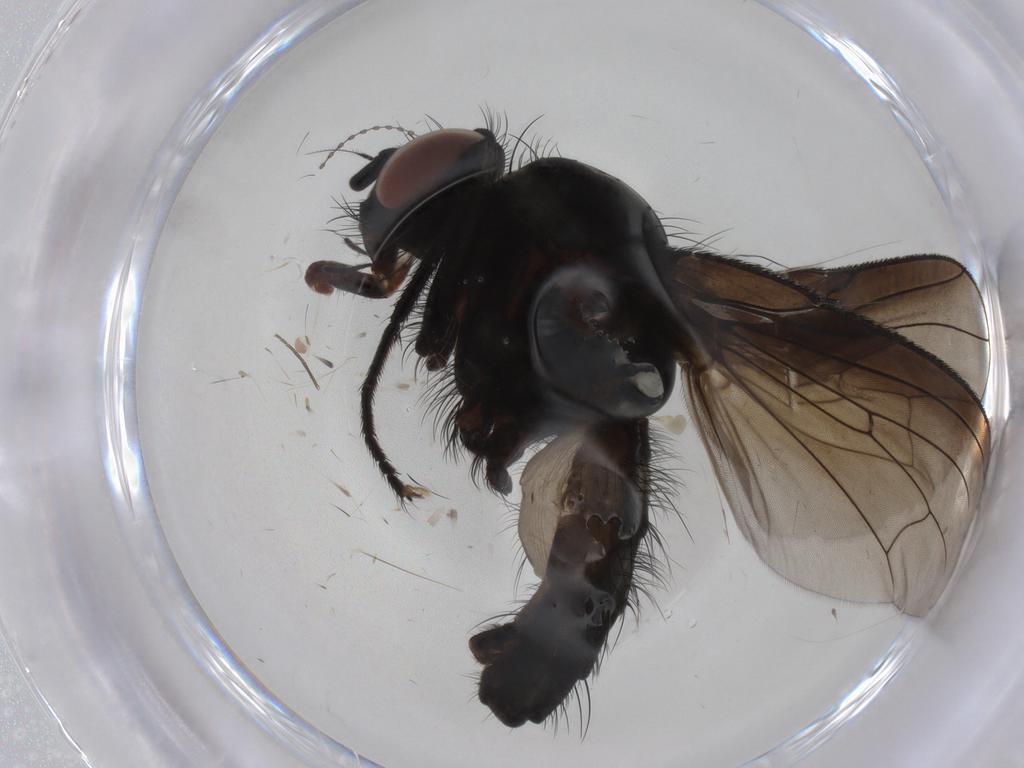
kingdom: Animalia
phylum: Arthropoda
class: Insecta
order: Diptera
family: Anthomyiidae
